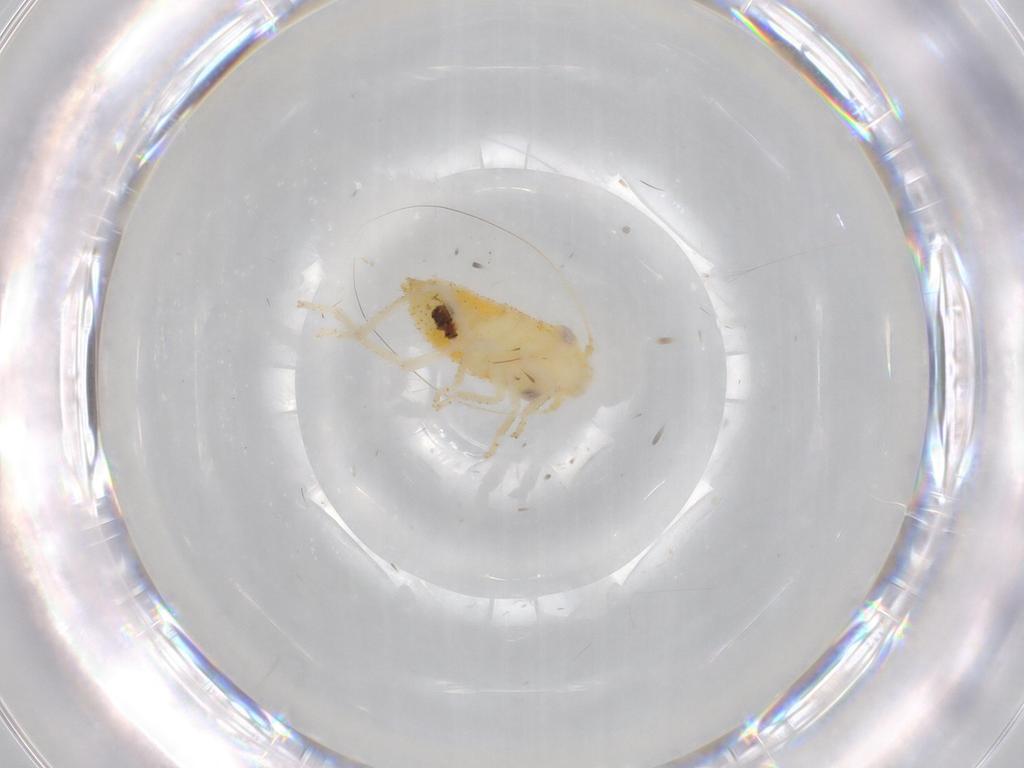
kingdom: Animalia
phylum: Arthropoda
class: Insecta
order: Hemiptera
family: Cicadellidae
